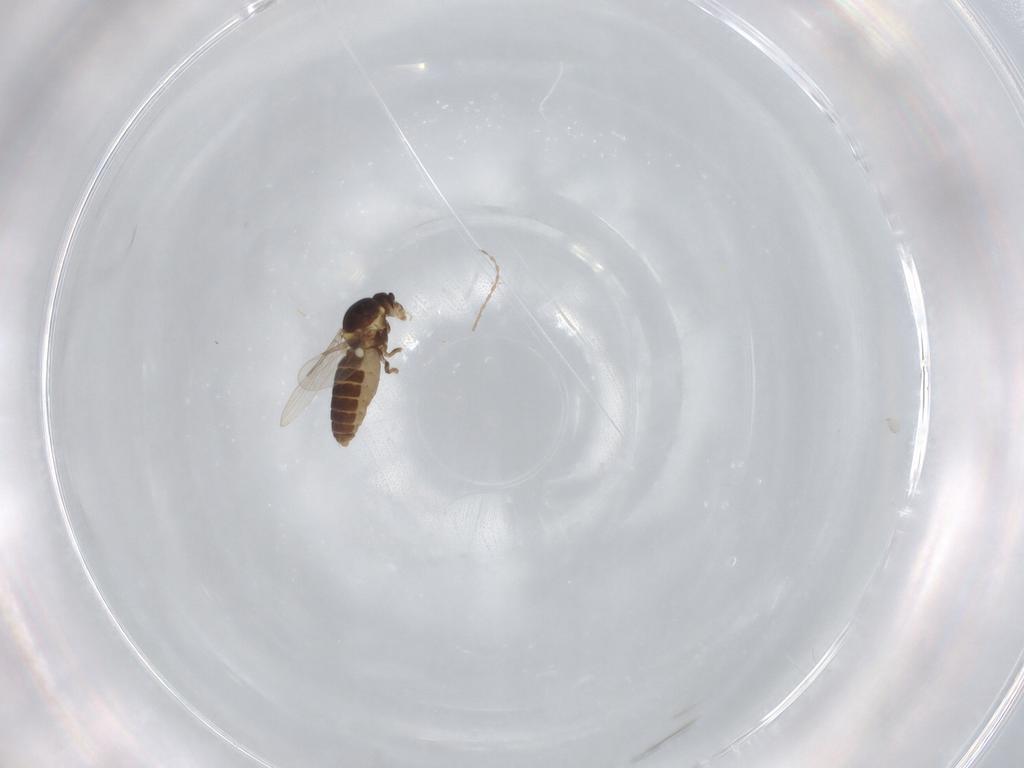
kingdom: Animalia
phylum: Arthropoda
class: Insecta
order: Diptera
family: Ceratopogonidae
